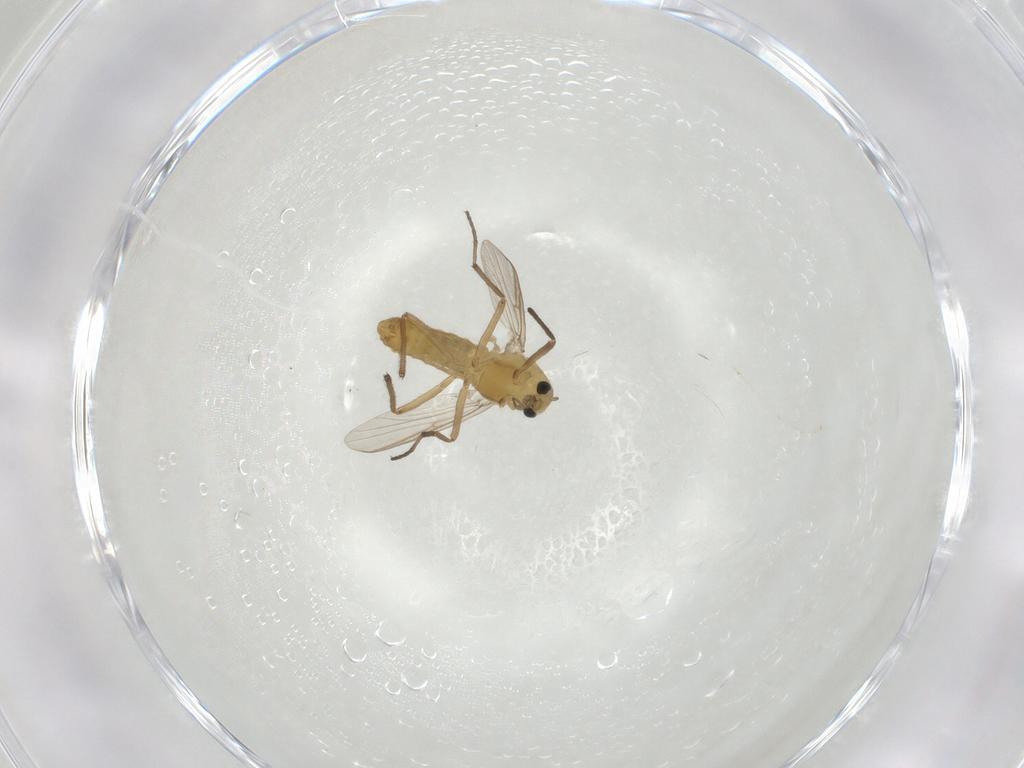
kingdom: Animalia
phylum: Arthropoda
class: Insecta
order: Diptera
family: Chironomidae
